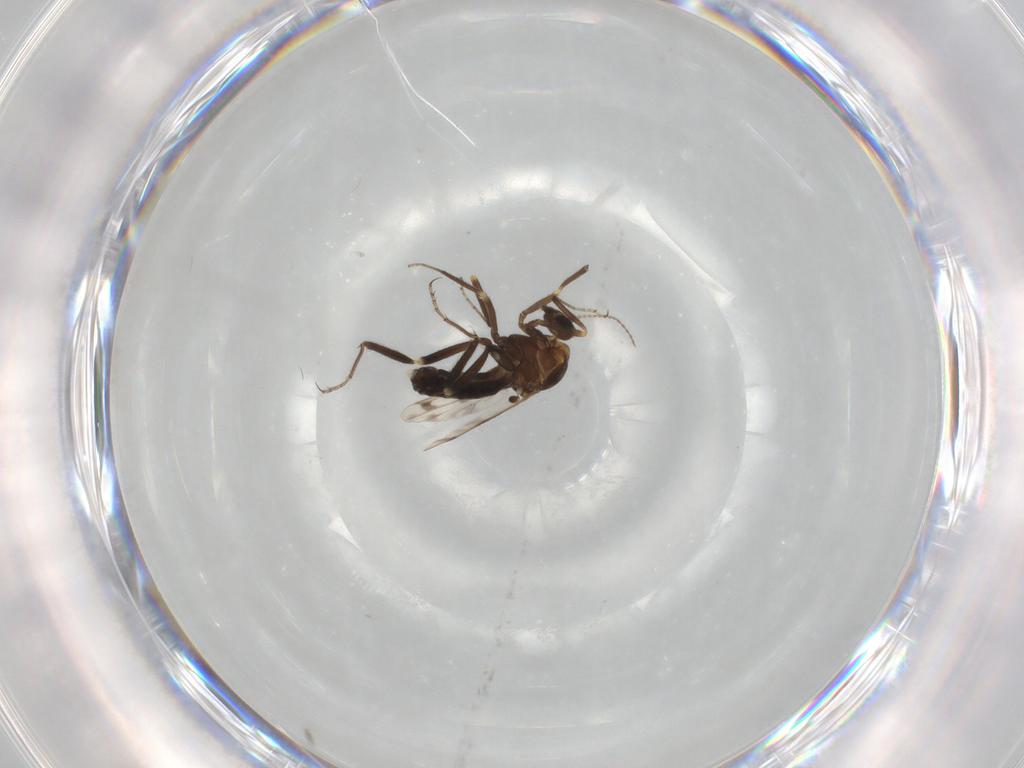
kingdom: Animalia
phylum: Arthropoda
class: Insecta
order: Diptera
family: Ceratopogonidae
